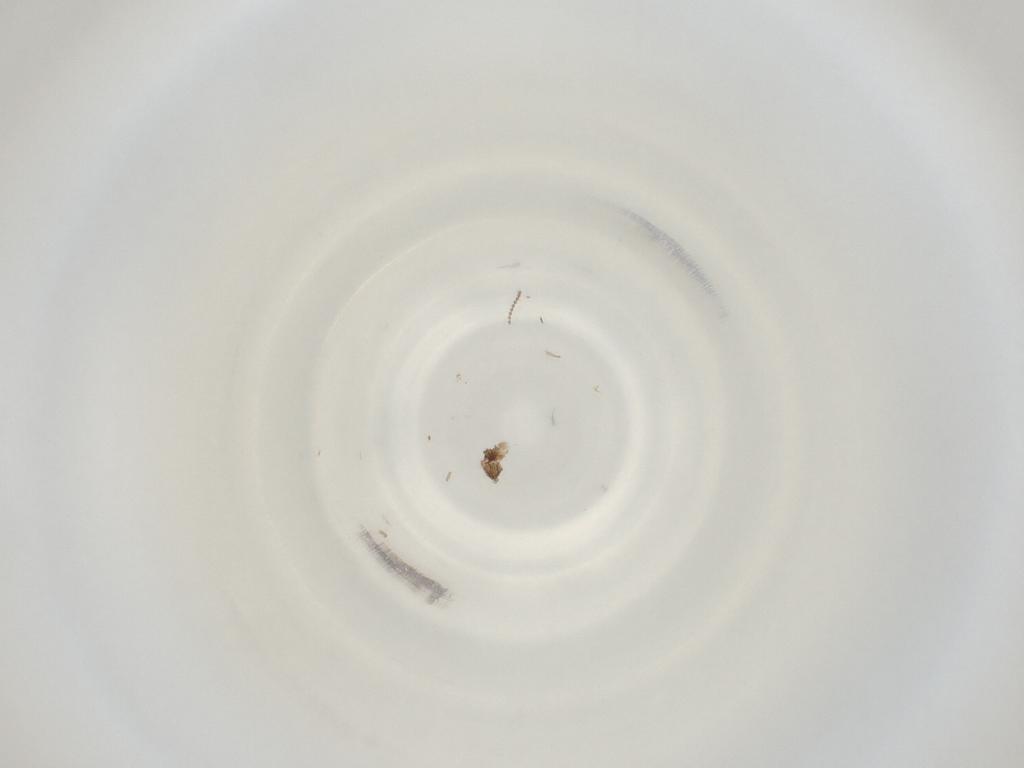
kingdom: Animalia
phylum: Arthropoda
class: Insecta
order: Diptera
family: Cecidomyiidae
